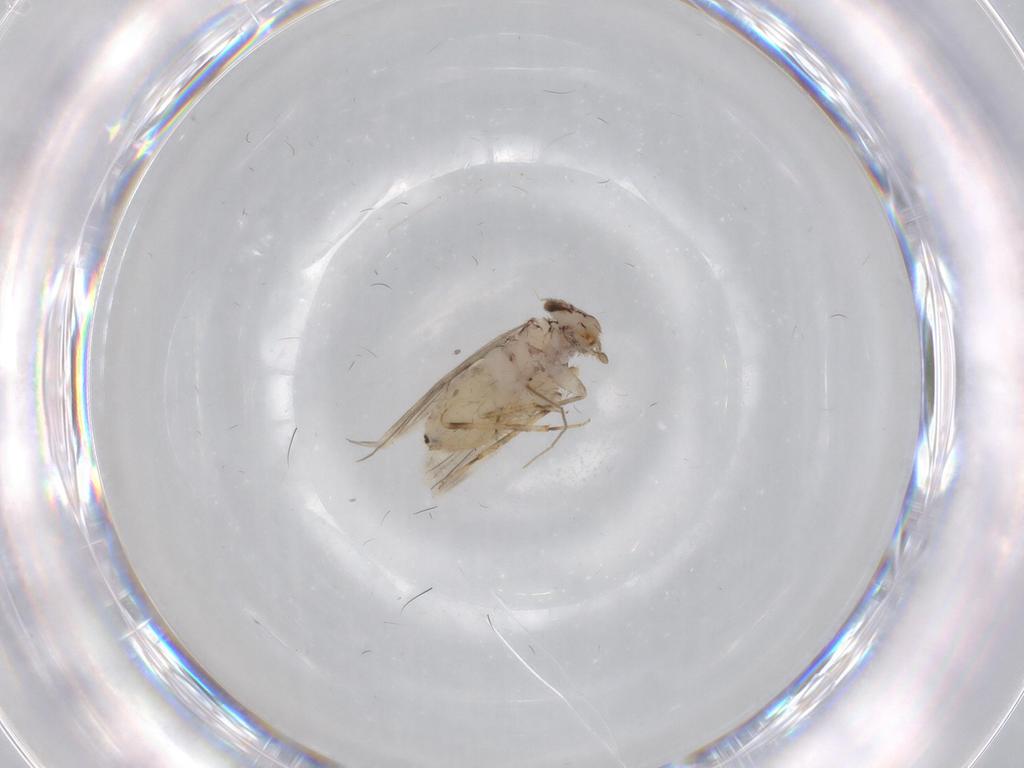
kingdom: Animalia
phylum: Arthropoda
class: Insecta
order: Psocodea
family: Lepidopsocidae
